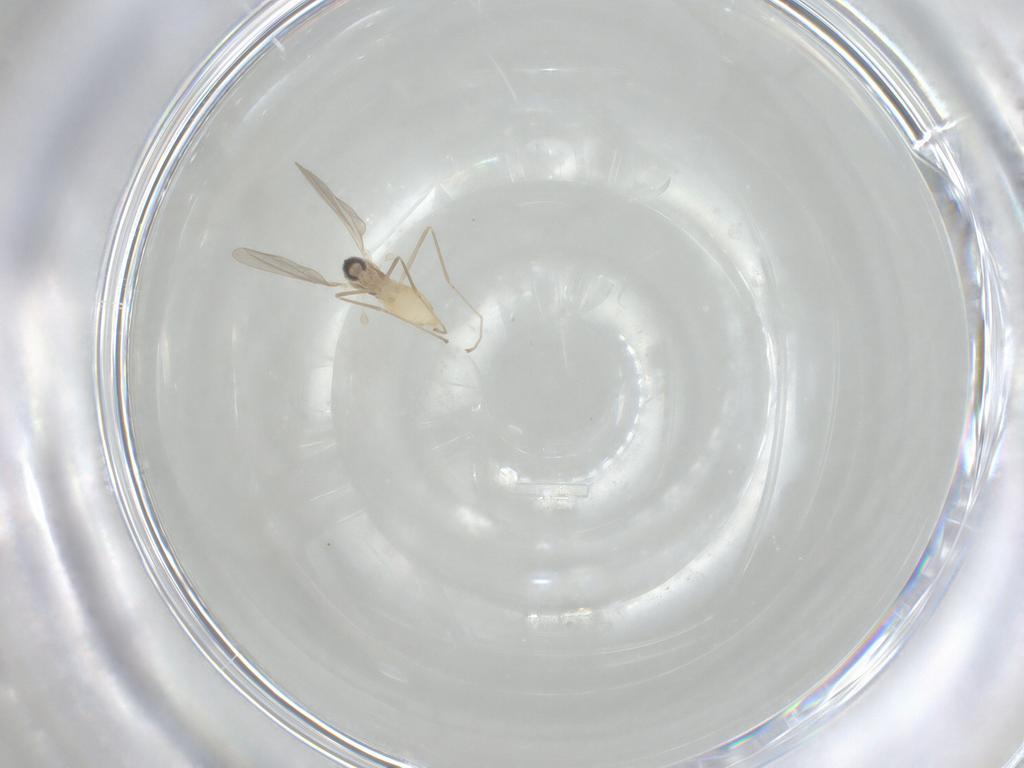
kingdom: Animalia
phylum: Arthropoda
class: Insecta
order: Diptera
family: Cecidomyiidae
